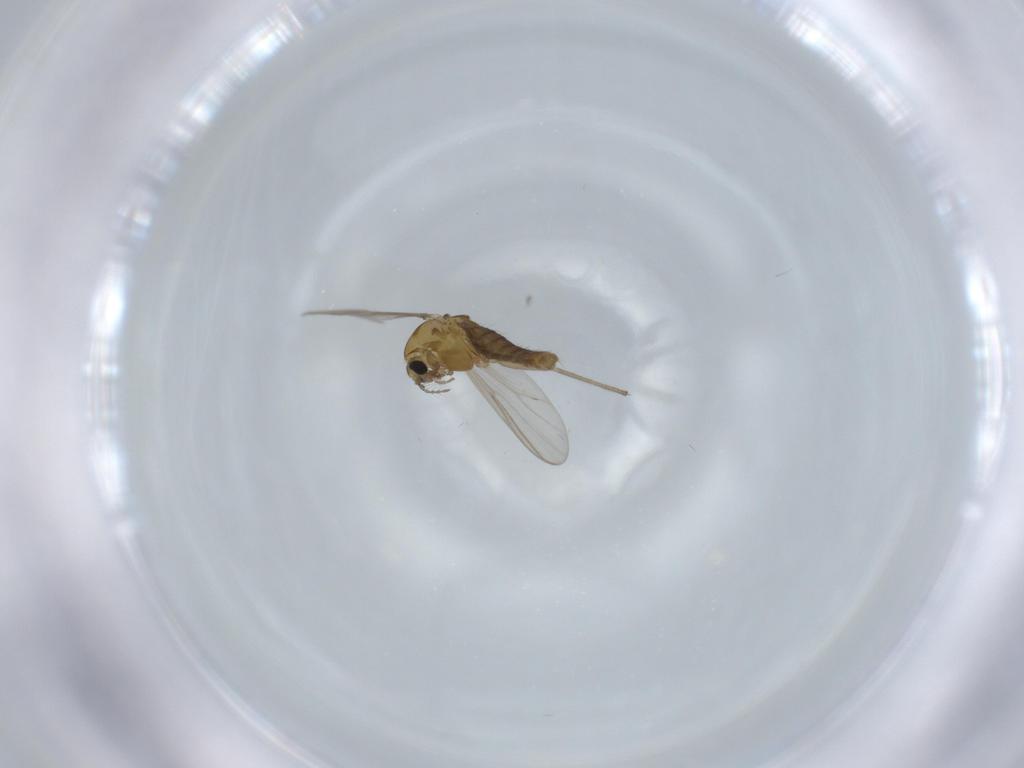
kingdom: Animalia
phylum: Arthropoda
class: Insecta
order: Diptera
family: Chironomidae
